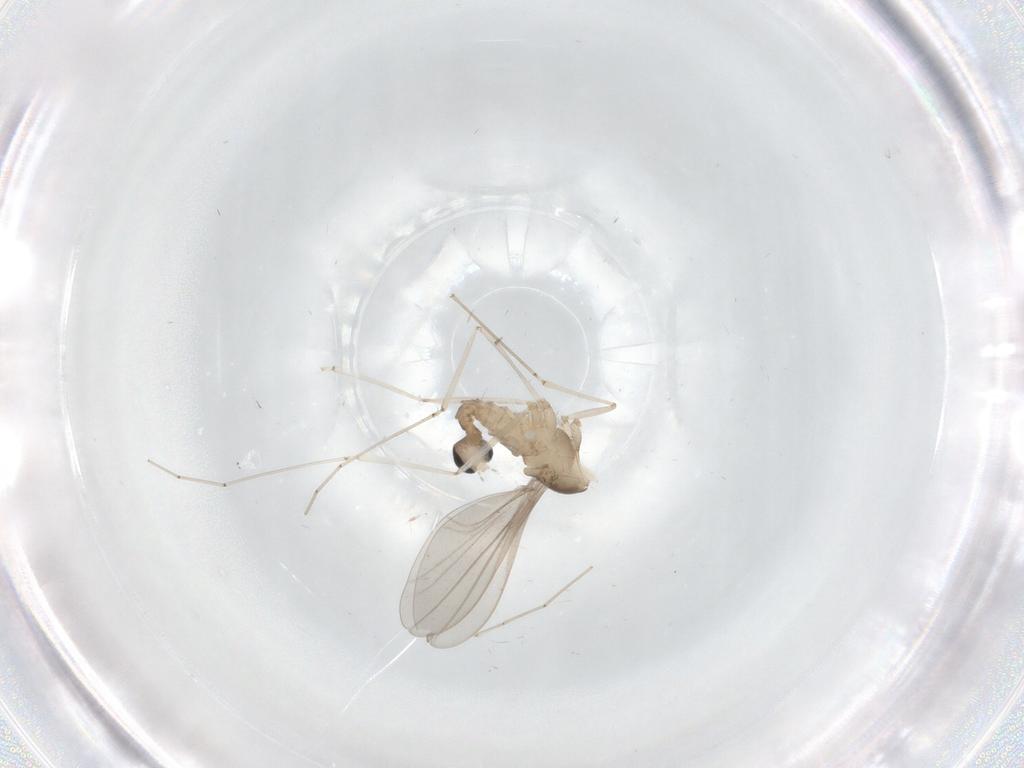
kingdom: Animalia
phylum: Arthropoda
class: Insecta
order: Diptera
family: Cecidomyiidae
